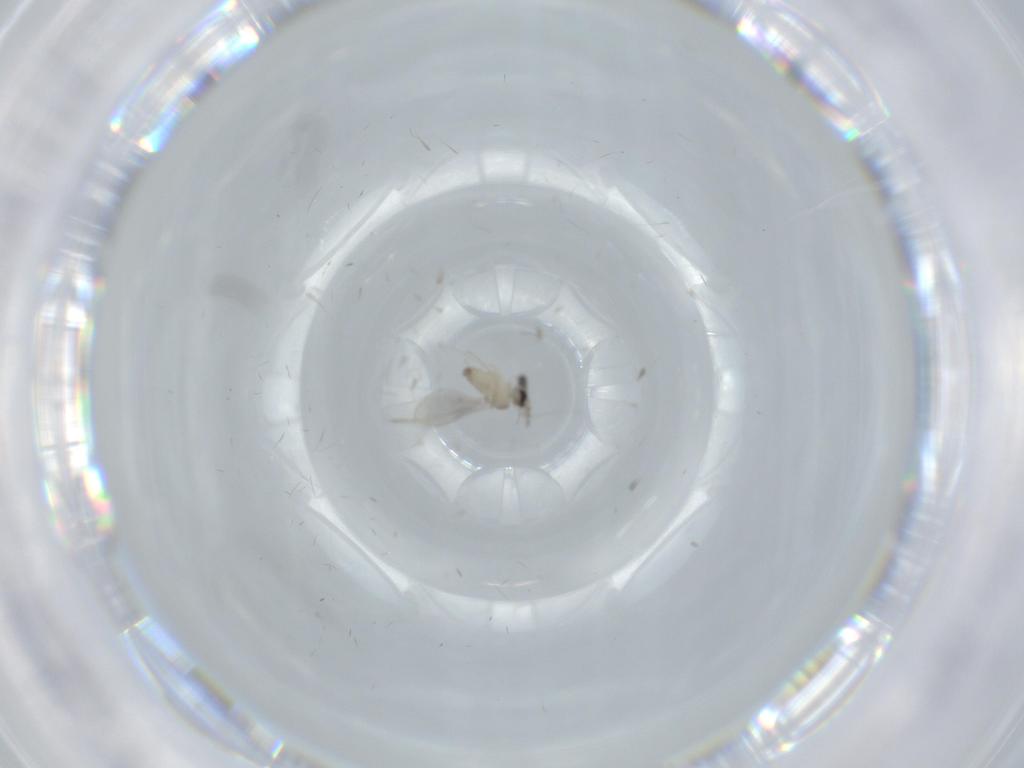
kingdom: Animalia
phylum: Arthropoda
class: Insecta
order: Diptera
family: Cecidomyiidae
